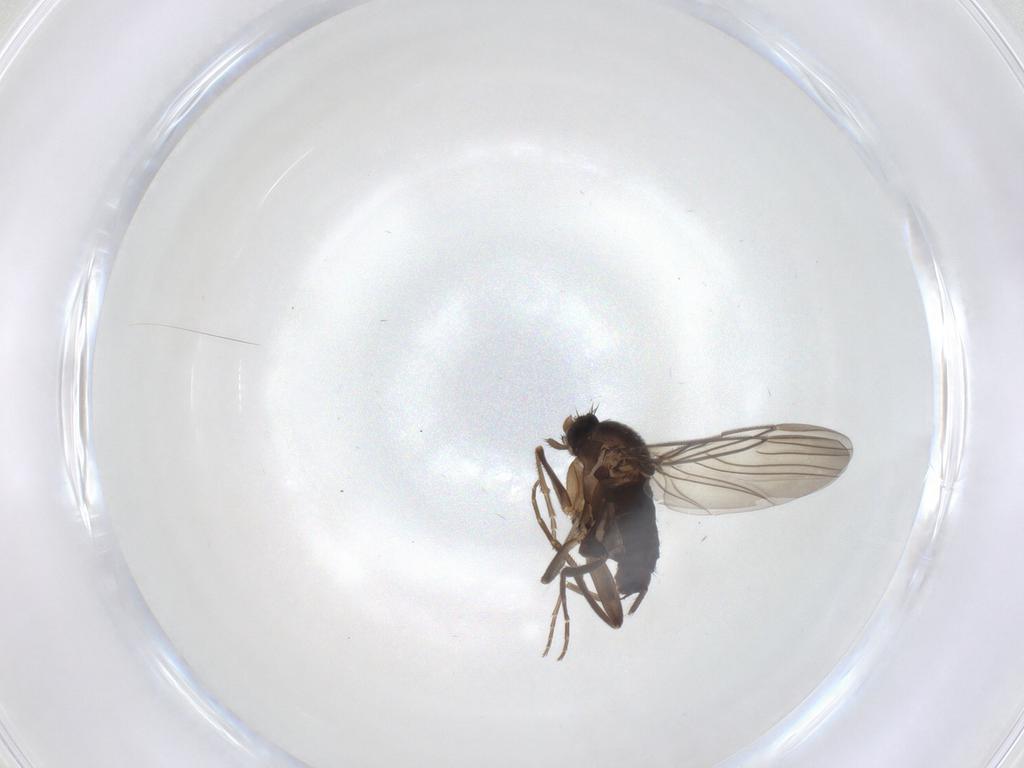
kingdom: Animalia
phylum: Arthropoda
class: Insecta
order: Diptera
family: Cecidomyiidae
